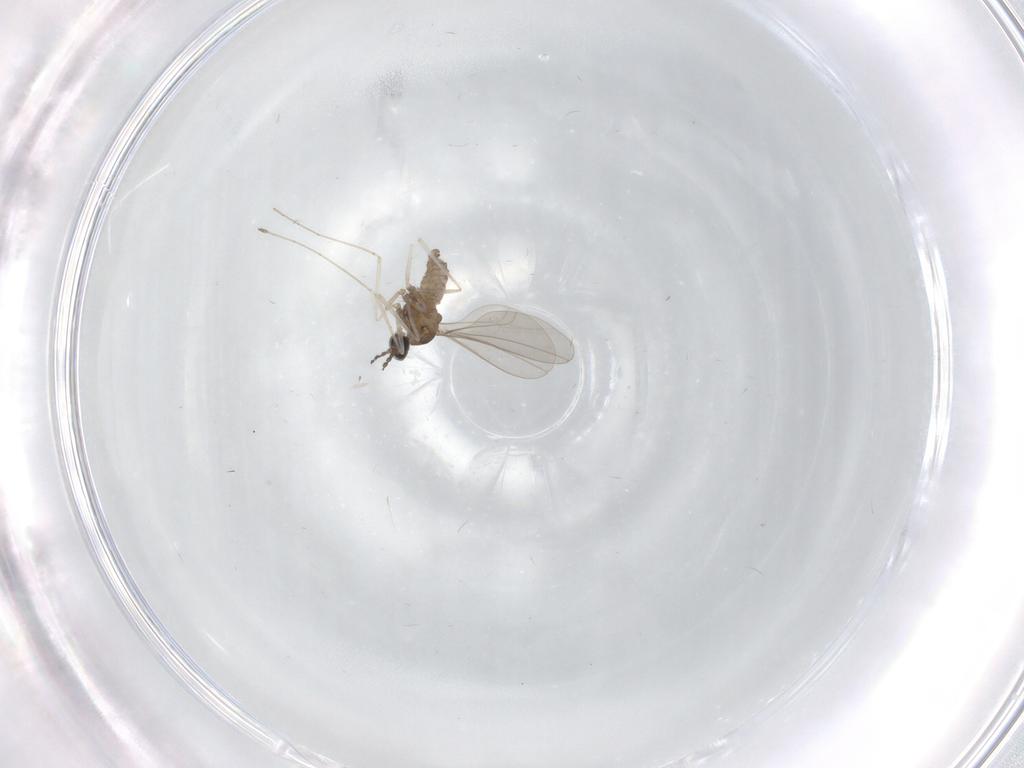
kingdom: Animalia
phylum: Arthropoda
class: Insecta
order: Diptera
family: Cecidomyiidae
